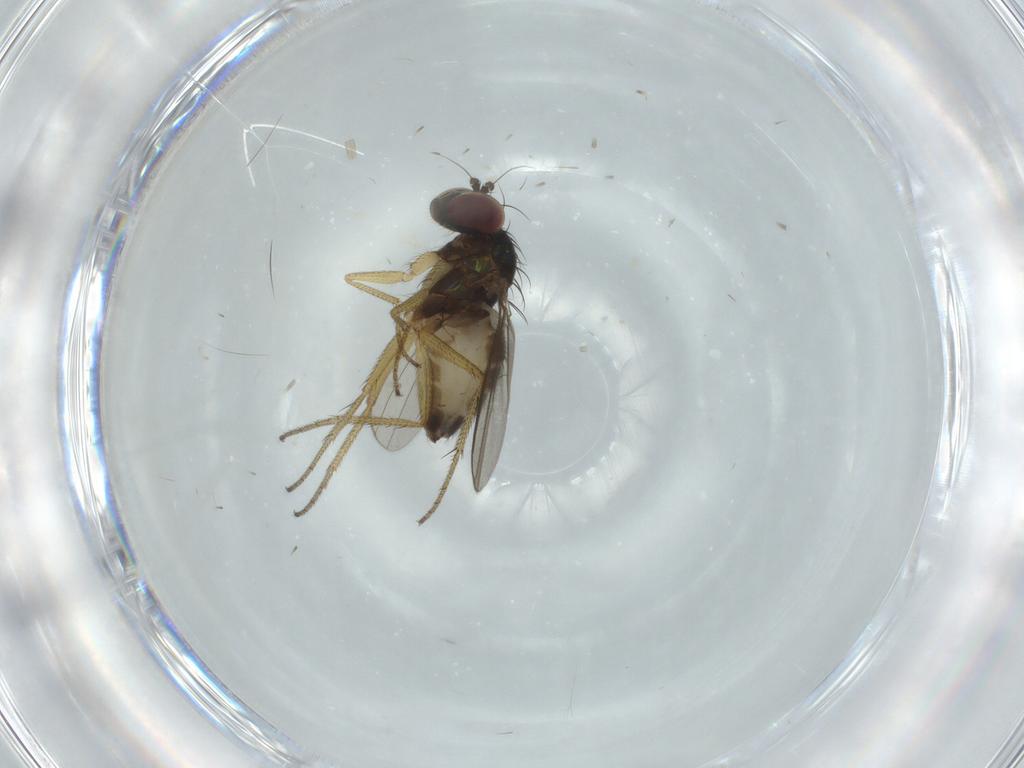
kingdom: Animalia
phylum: Arthropoda
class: Insecta
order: Diptera
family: Dolichopodidae
